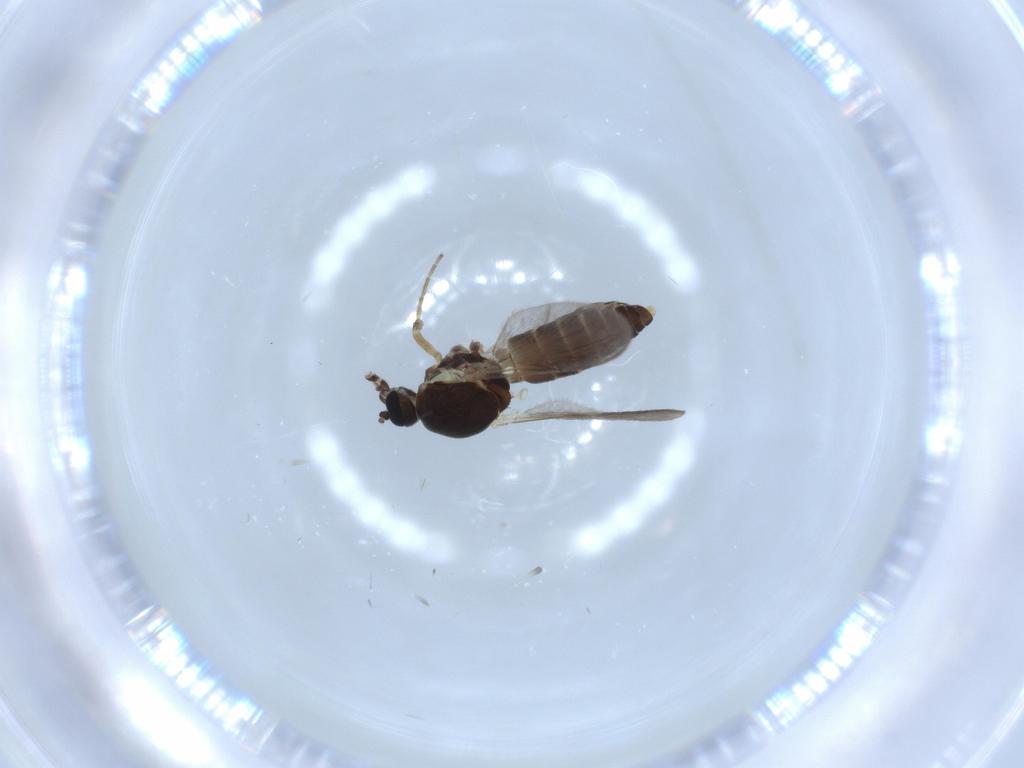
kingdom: Animalia
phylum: Arthropoda
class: Insecta
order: Diptera
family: Ceratopogonidae
